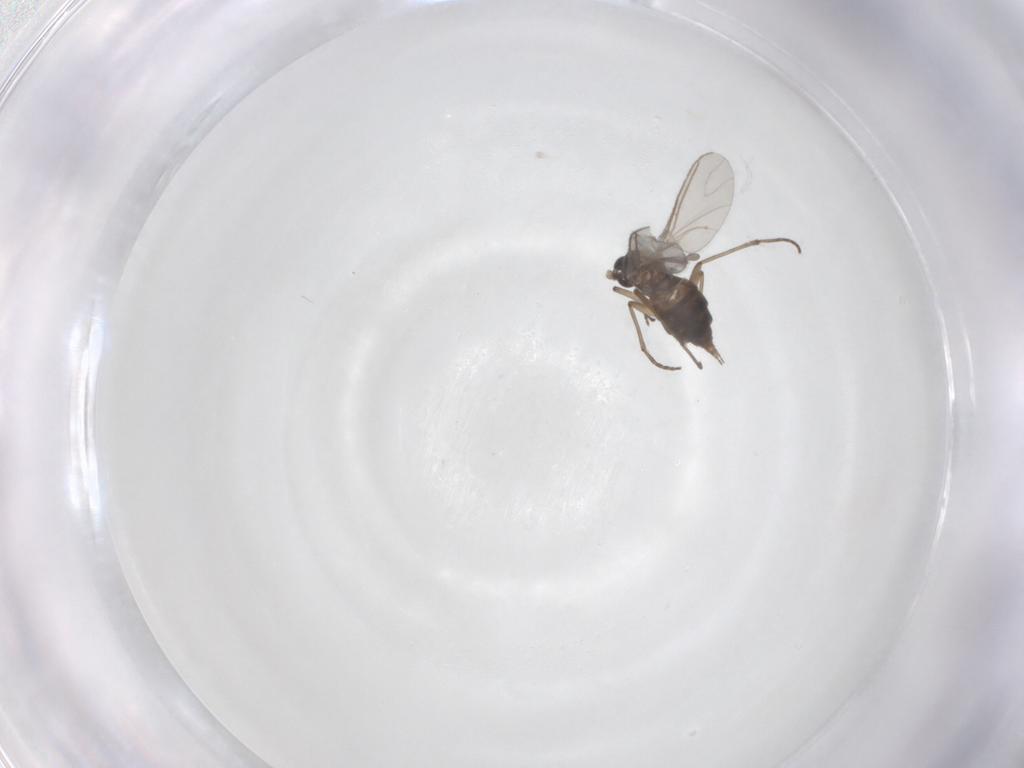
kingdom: Animalia
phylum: Arthropoda
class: Insecta
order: Diptera
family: Sciaridae
